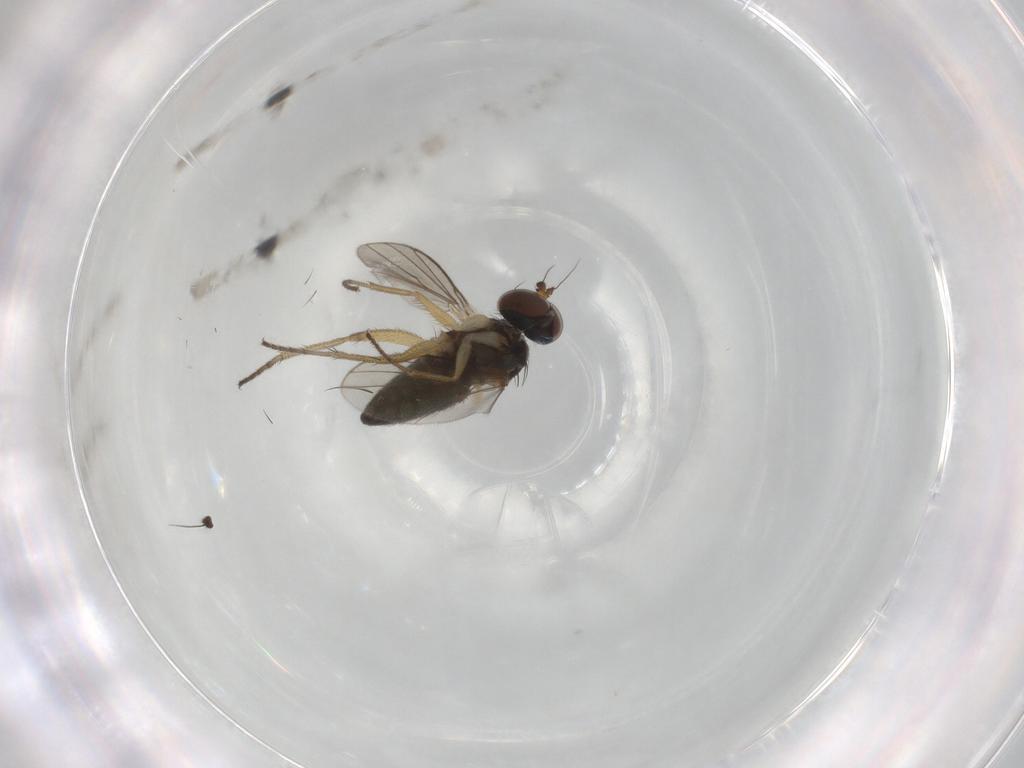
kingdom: Animalia
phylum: Arthropoda
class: Insecta
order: Diptera
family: Dolichopodidae
